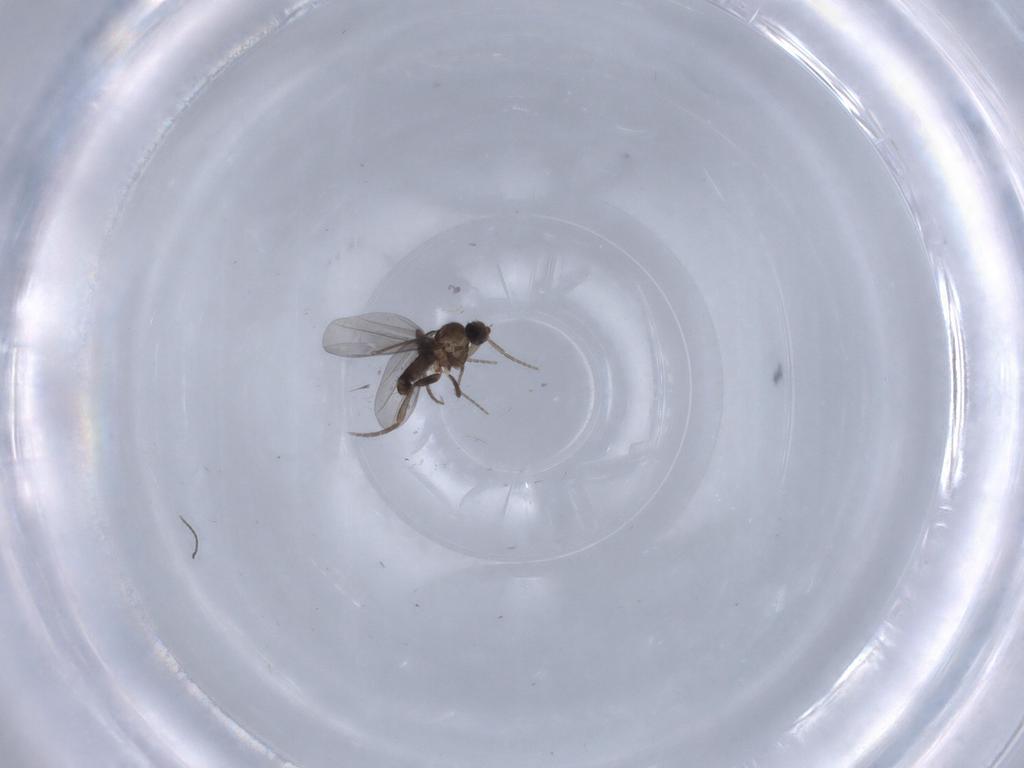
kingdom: Animalia
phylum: Arthropoda
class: Insecta
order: Diptera
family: Cecidomyiidae
